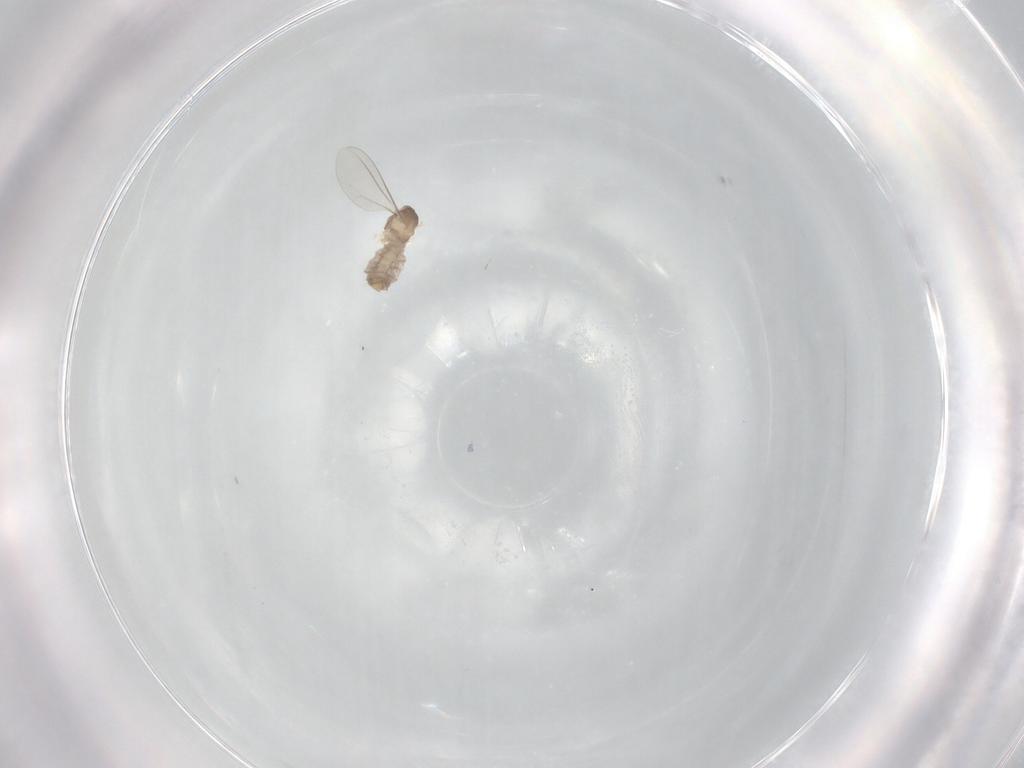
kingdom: Animalia
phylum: Arthropoda
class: Insecta
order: Diptera
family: Cecidomyiidae
